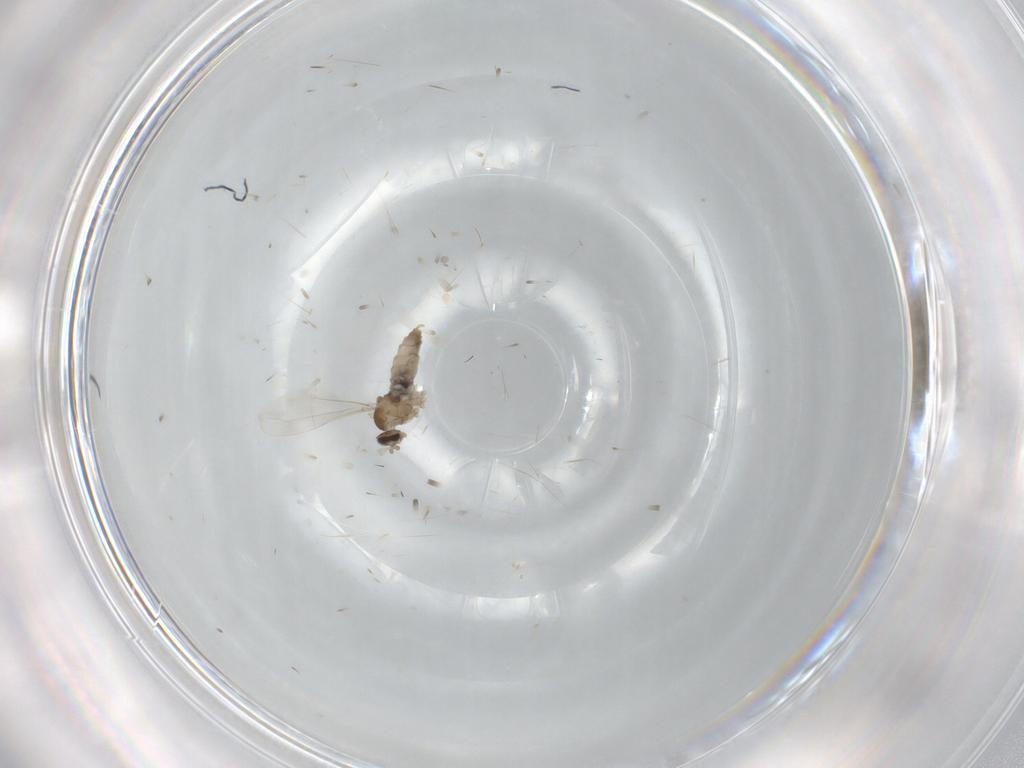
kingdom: Animalia
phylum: Arthropoda
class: Insecta
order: Diptera
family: Chironomidae
